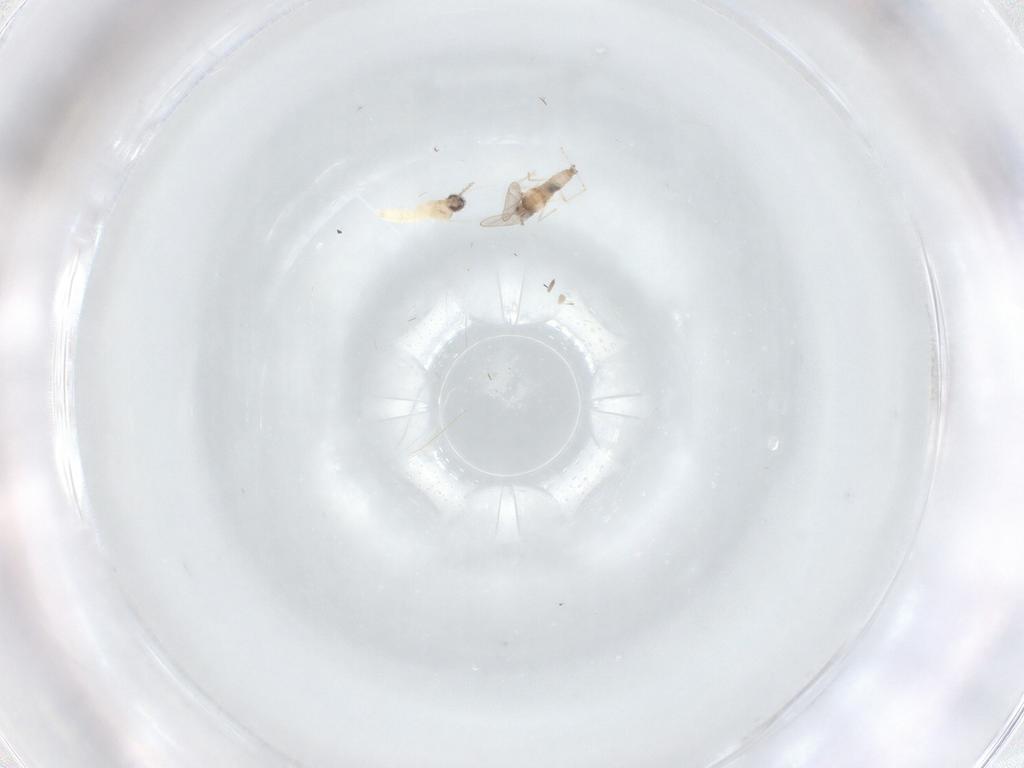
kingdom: Animalia
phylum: Arthropoda
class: Insecta
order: Diptera
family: Cecidomyiidae
